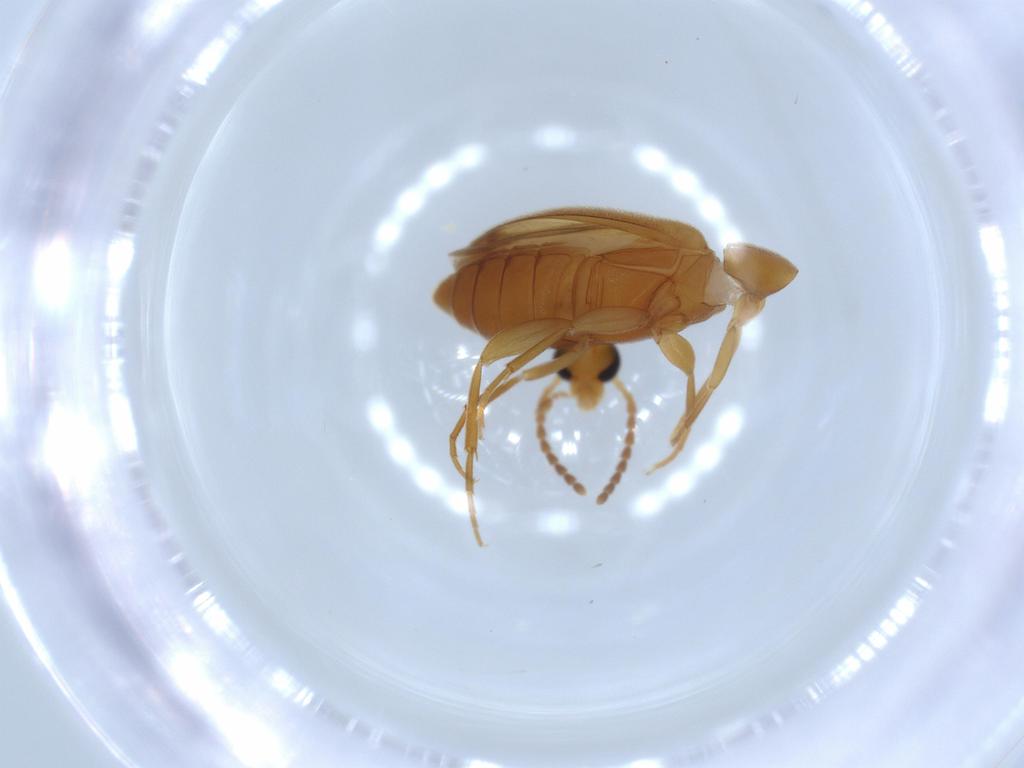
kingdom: Animalia
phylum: Arthropoda
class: Insecta
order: Coleoptera
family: Scraptiidae
